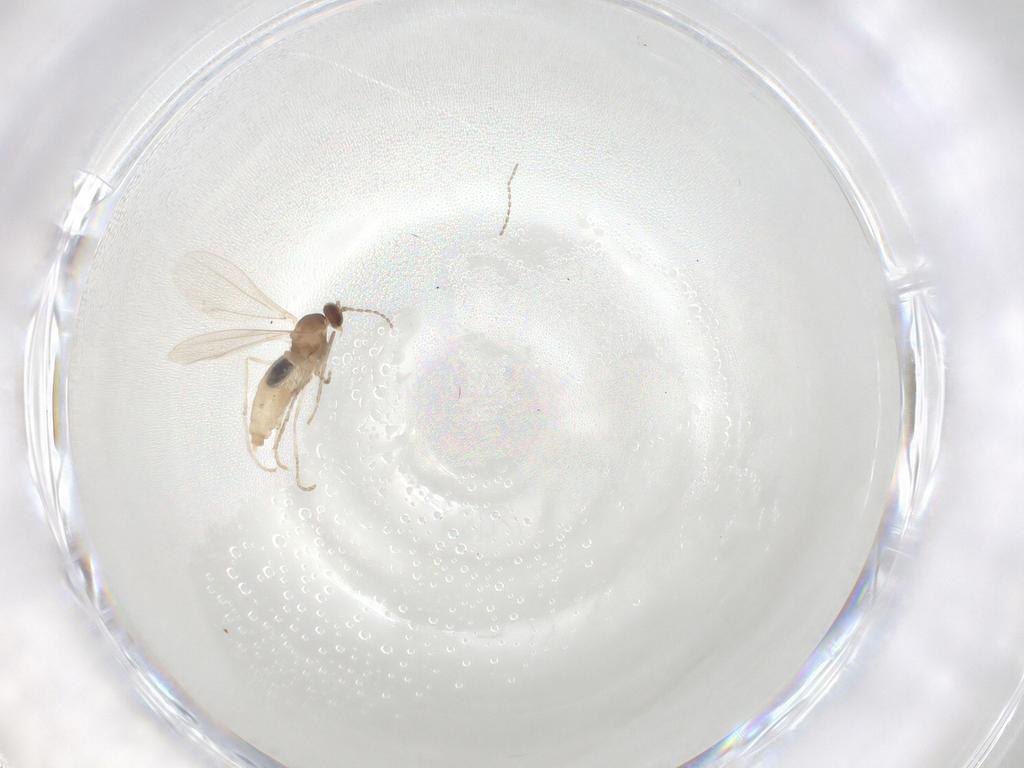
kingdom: Animalia
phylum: Arthropoda
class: Insecta
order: Diptera
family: Cecidomyiidae
